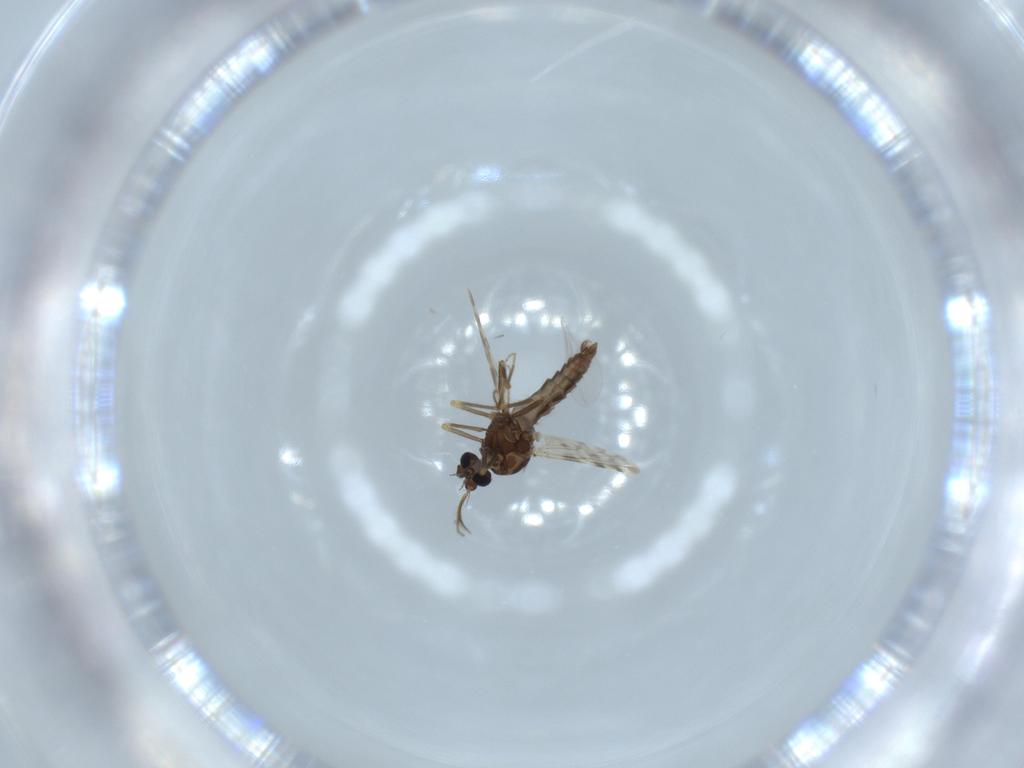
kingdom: Animalia
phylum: Arthropoda
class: Insecta
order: Diptera
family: Ceratopogonidae
